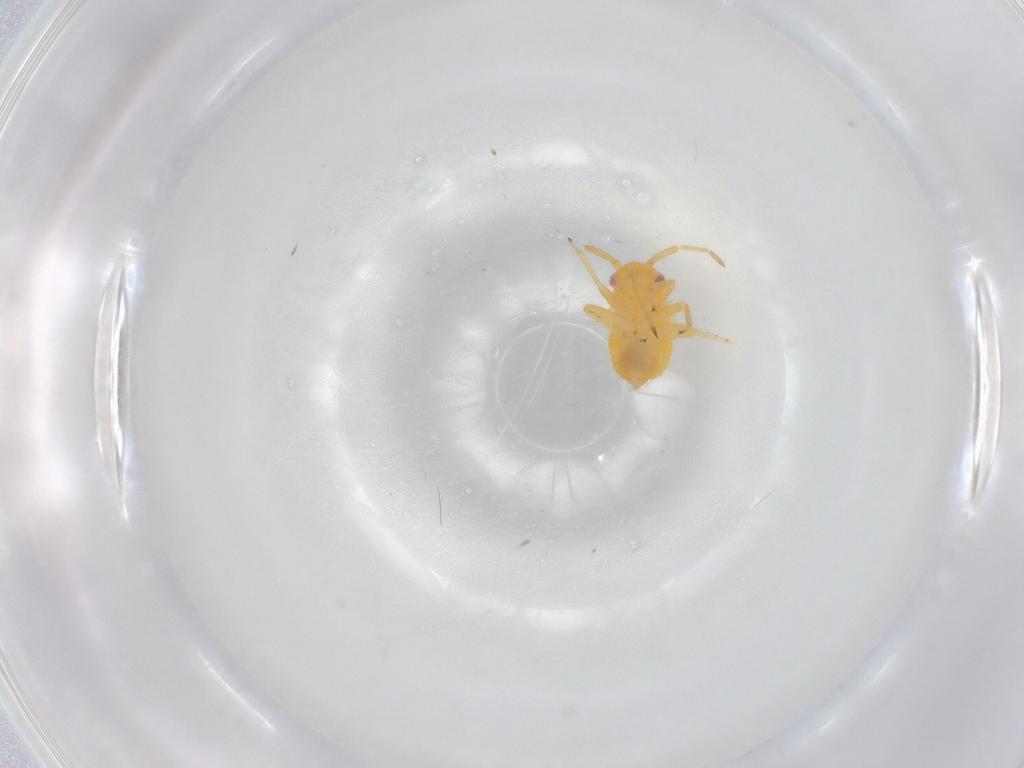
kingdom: Animalia
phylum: Arthropoda
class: Insecta
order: Hemiptera
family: Miridae
